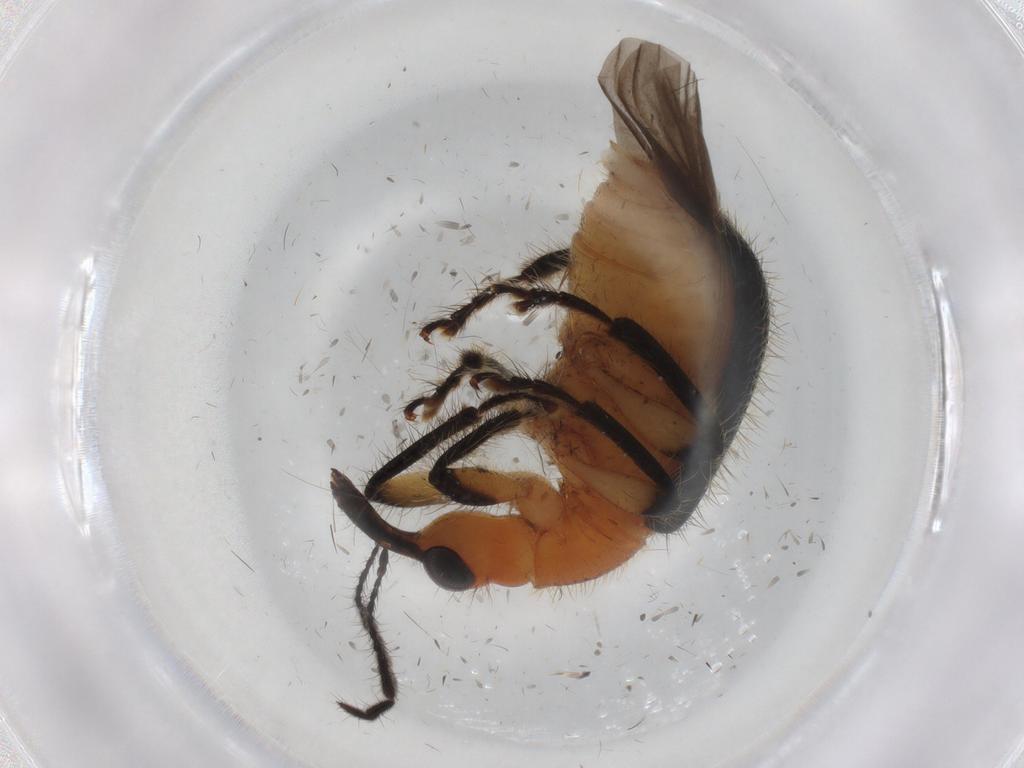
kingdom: Animalia
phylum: Arthropoda
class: Insecta
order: Coleoptera
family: Attelabidae
